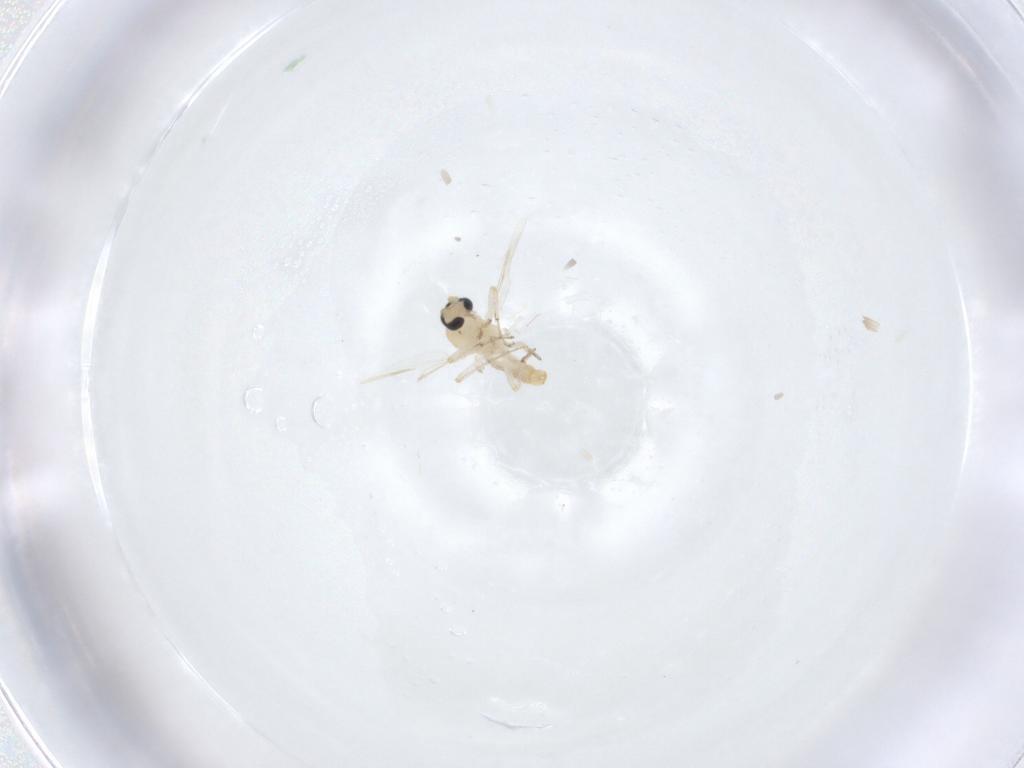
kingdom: Animalia
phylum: Arthropoda
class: Insecta
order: Diptera
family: Ceratopogonidae
